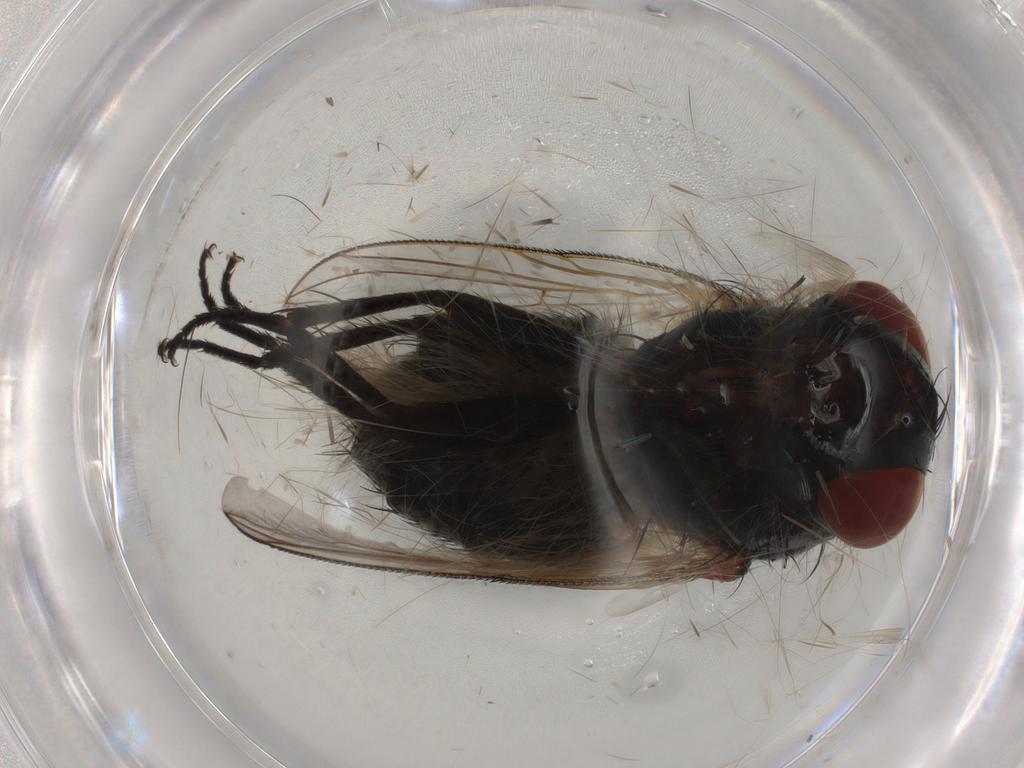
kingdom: Animalia
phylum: Arthropoda
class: Insecta
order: Diptera
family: Sarcophagidae
